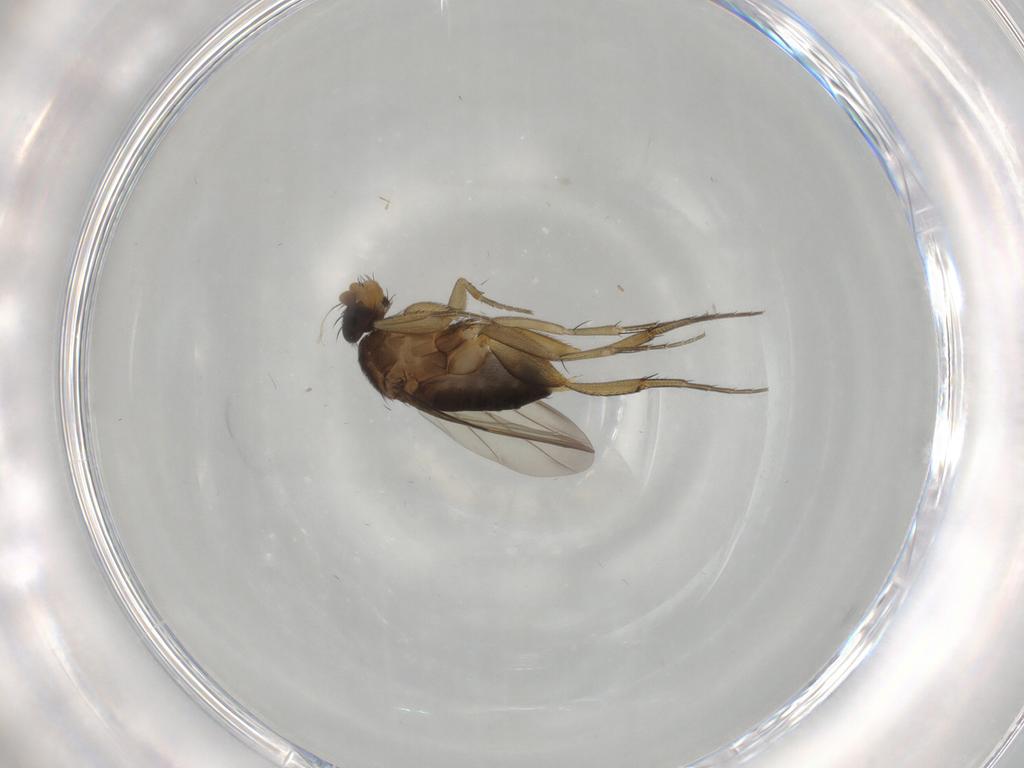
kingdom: Animalia
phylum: Arthropoda
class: Insecta
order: Diptera
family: Phoridae
